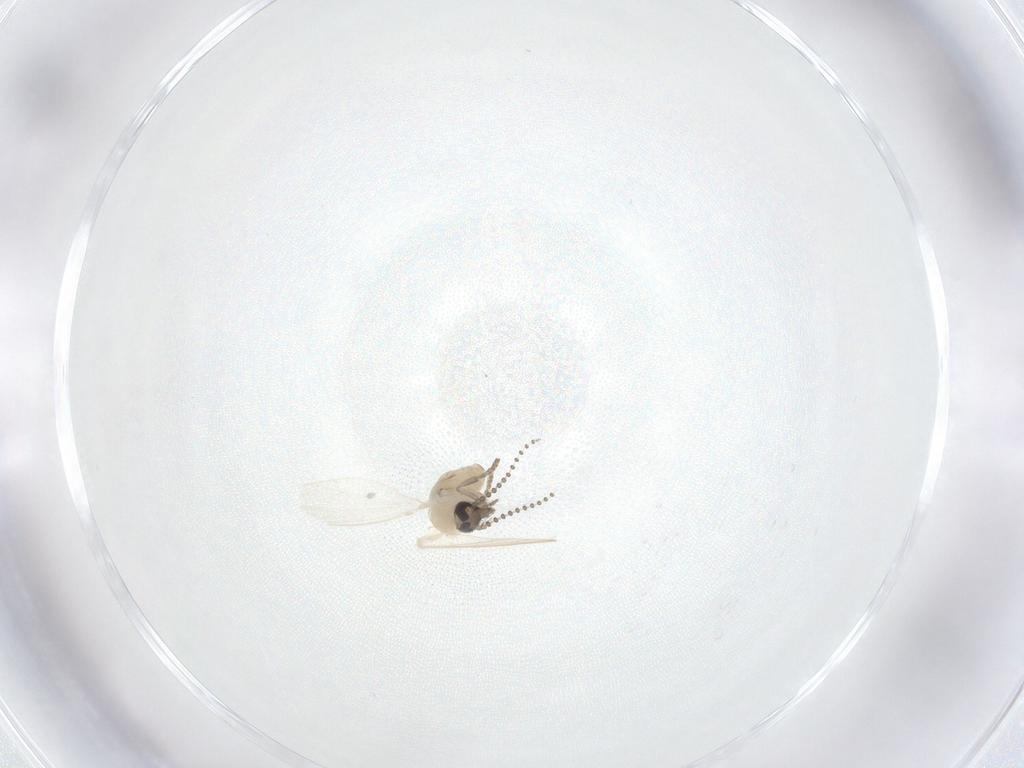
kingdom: Animalia
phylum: Arthropoda
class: Insecta
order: Diptera
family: Psychodidae
